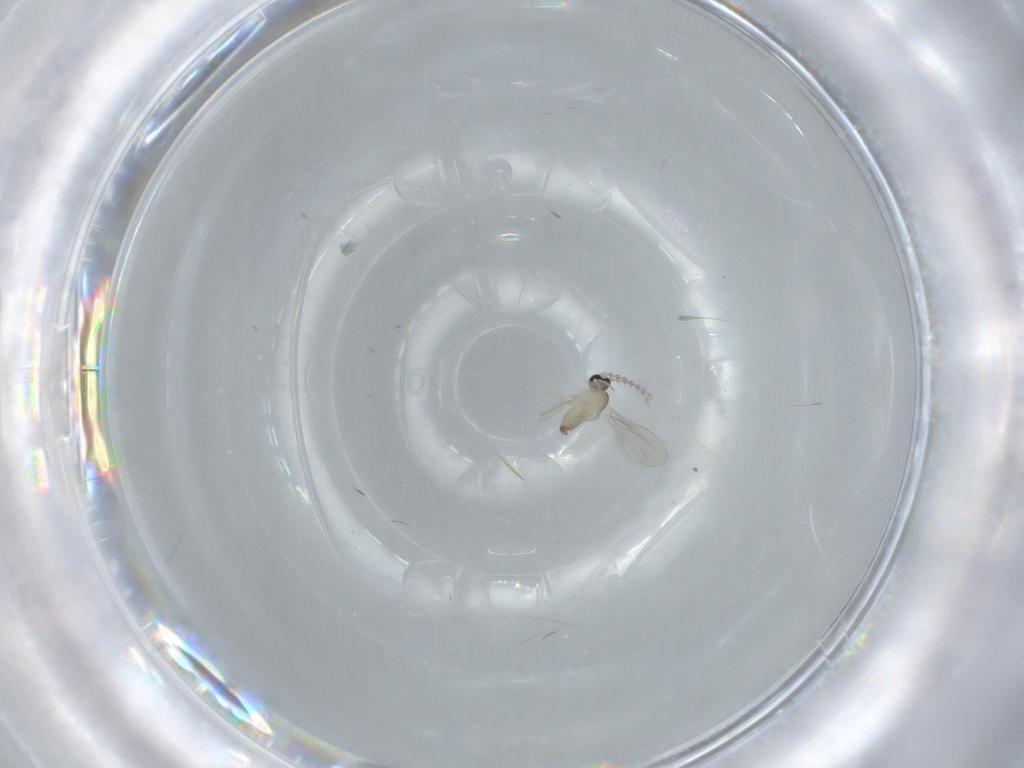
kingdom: Animalia
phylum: Arthropoda
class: Insecta
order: Diptera
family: Cecidomyiidae
